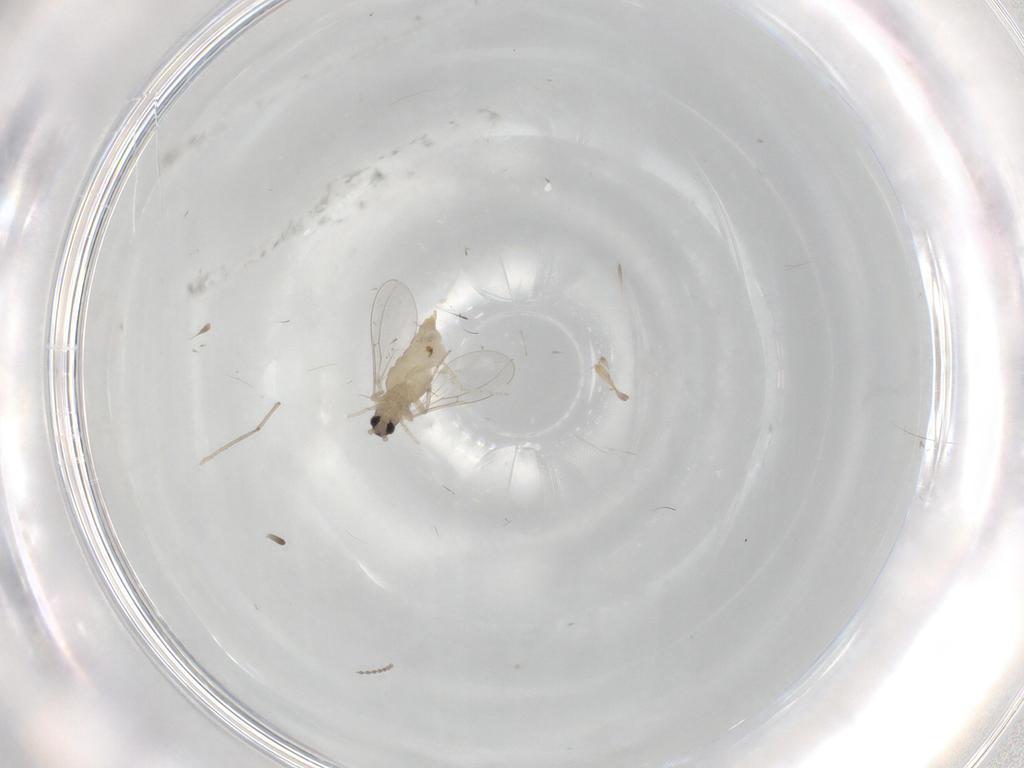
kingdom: Animalia
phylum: Arthropoda
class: Insecta
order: Diptera
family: Cecidomyiidae
